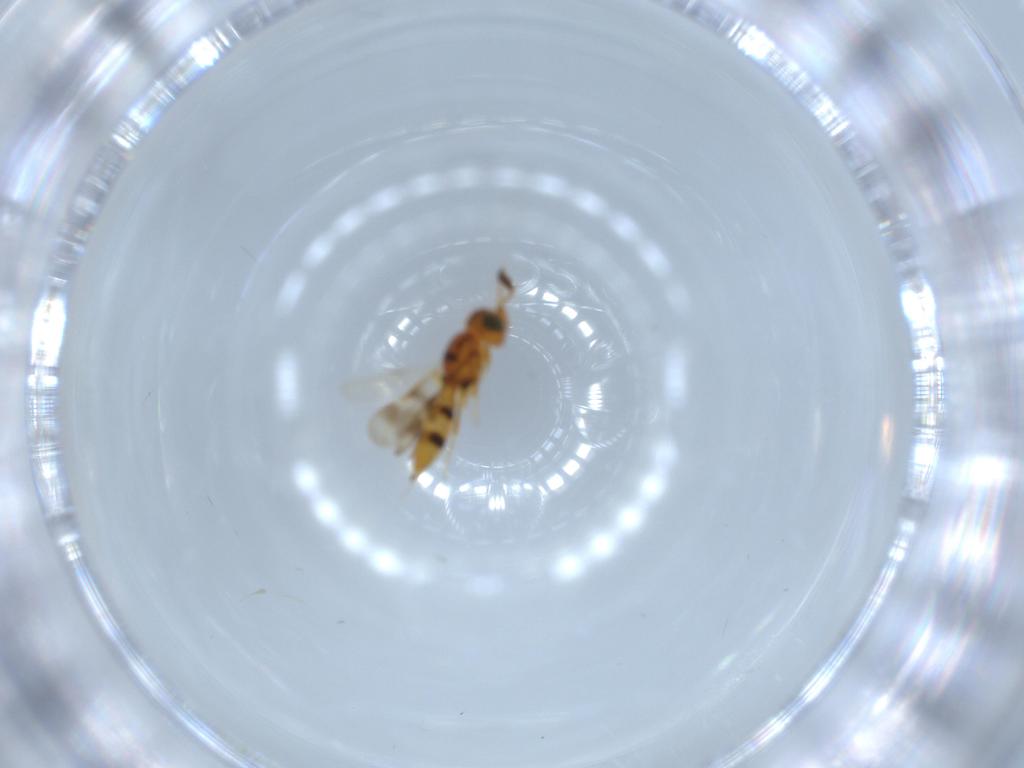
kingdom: Animalia
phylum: Arthropoda
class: Insecta
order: Hymenoptera
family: Scelionidae
